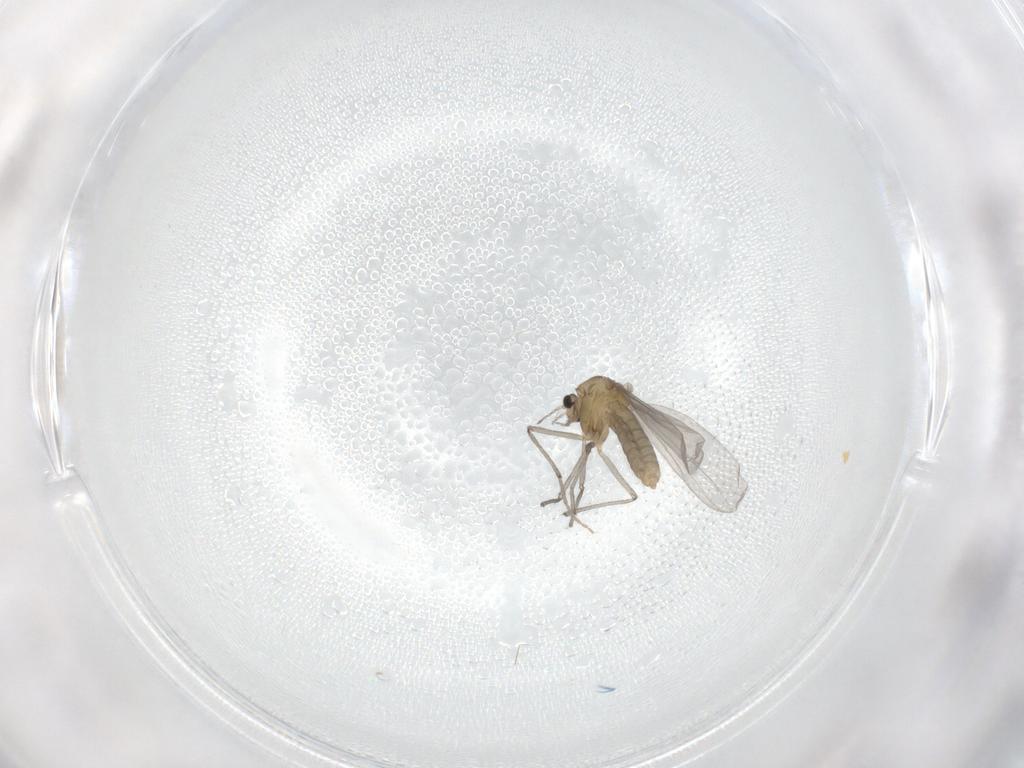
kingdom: Animalia
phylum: Arthropoda
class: Insecta
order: Diptera
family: Chironomidae
